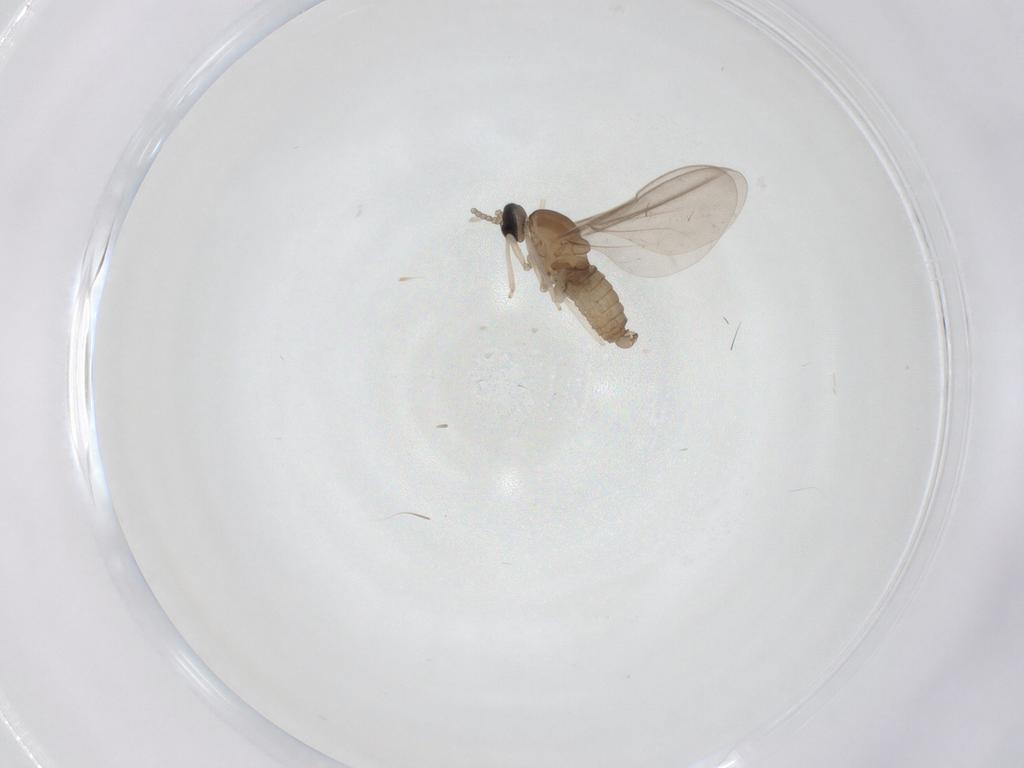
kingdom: Animalia
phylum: Arthropoda
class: Insecta
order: Diptera
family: Cecidomyiidae
